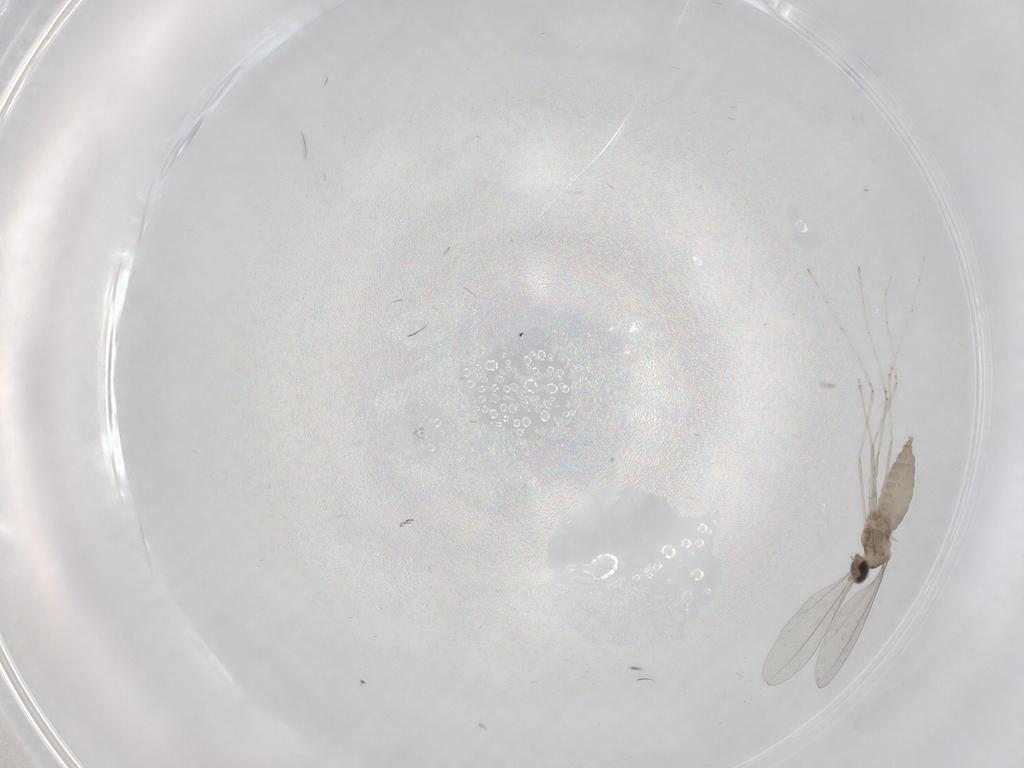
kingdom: Animalia
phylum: Arthropoda
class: Insecta
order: Diptera
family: Cecidomyiidae
